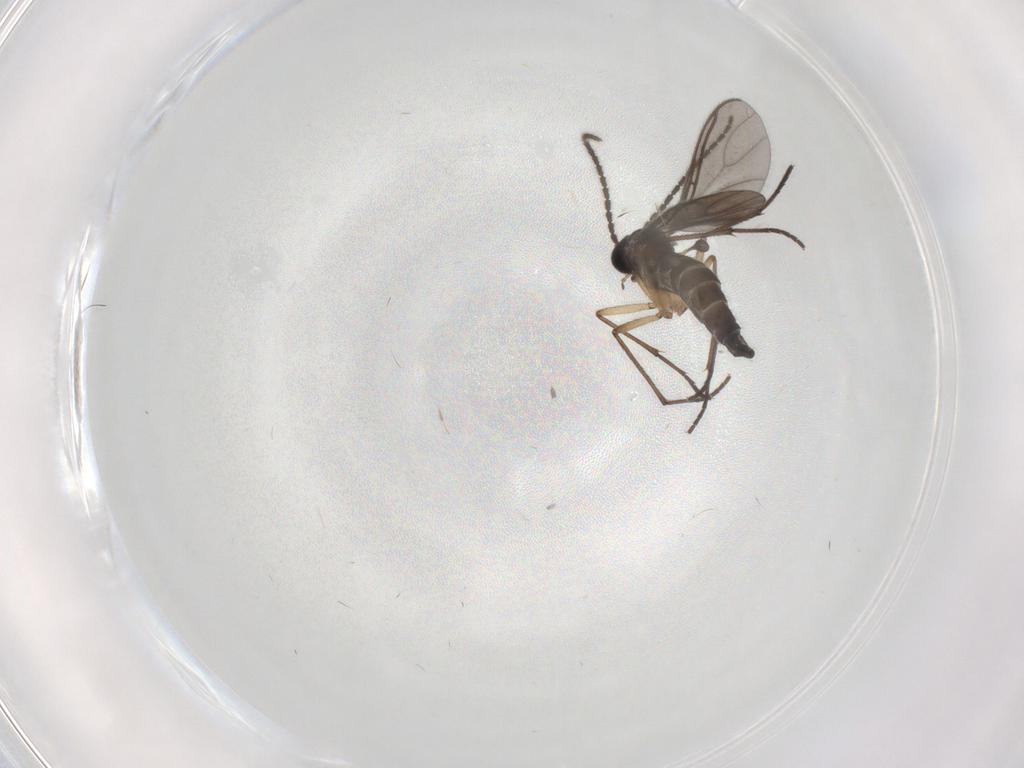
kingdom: Animalia
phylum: Arthropoda
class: Insecta
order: Diptera
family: Sciaridae
